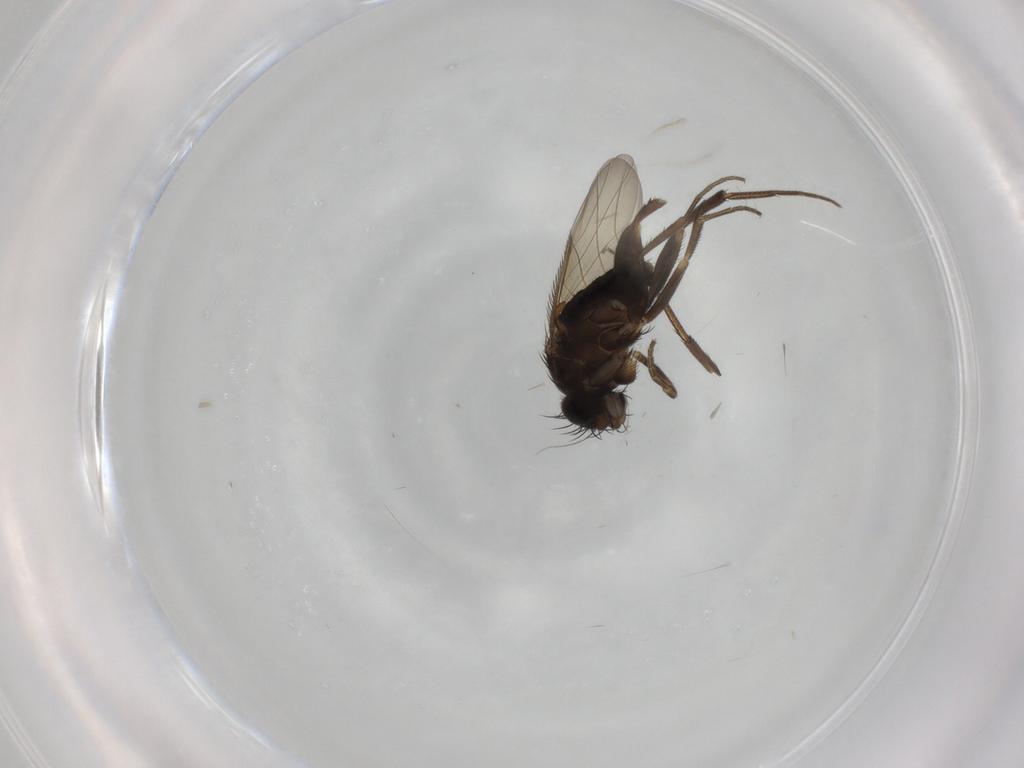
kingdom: Animalia
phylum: Arthropoda
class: Insecta
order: Diptera
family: Phoridae
